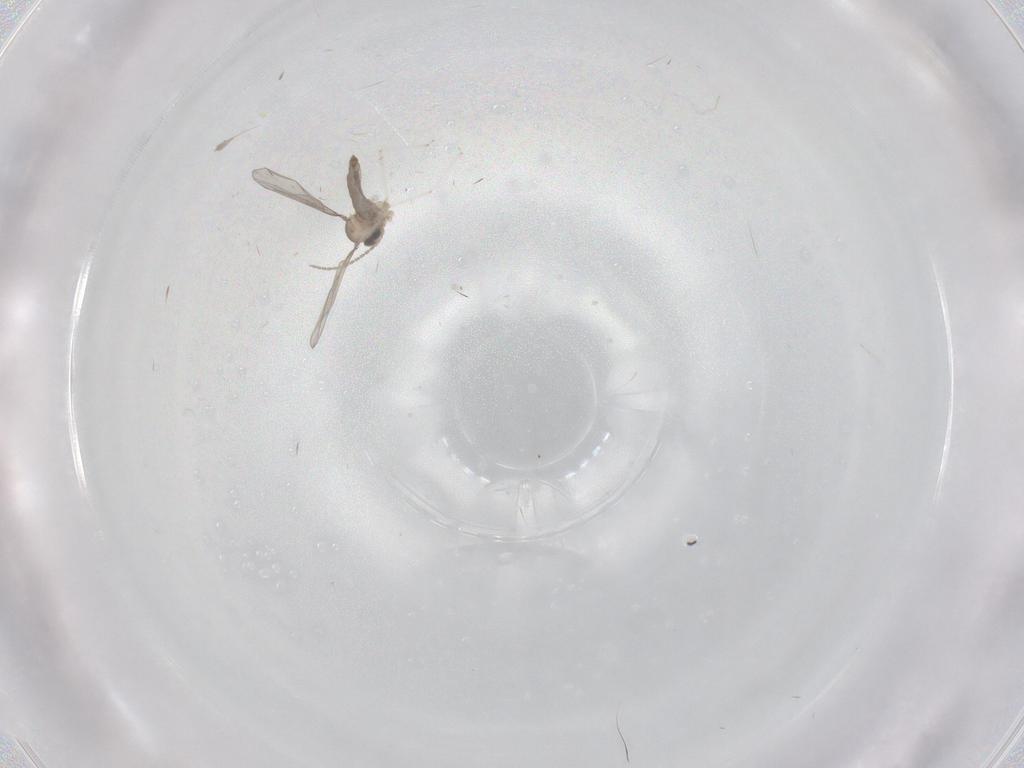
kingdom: Animalia
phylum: Arthropoda
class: Insecta
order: Diptera
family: Cecidomyiidae
